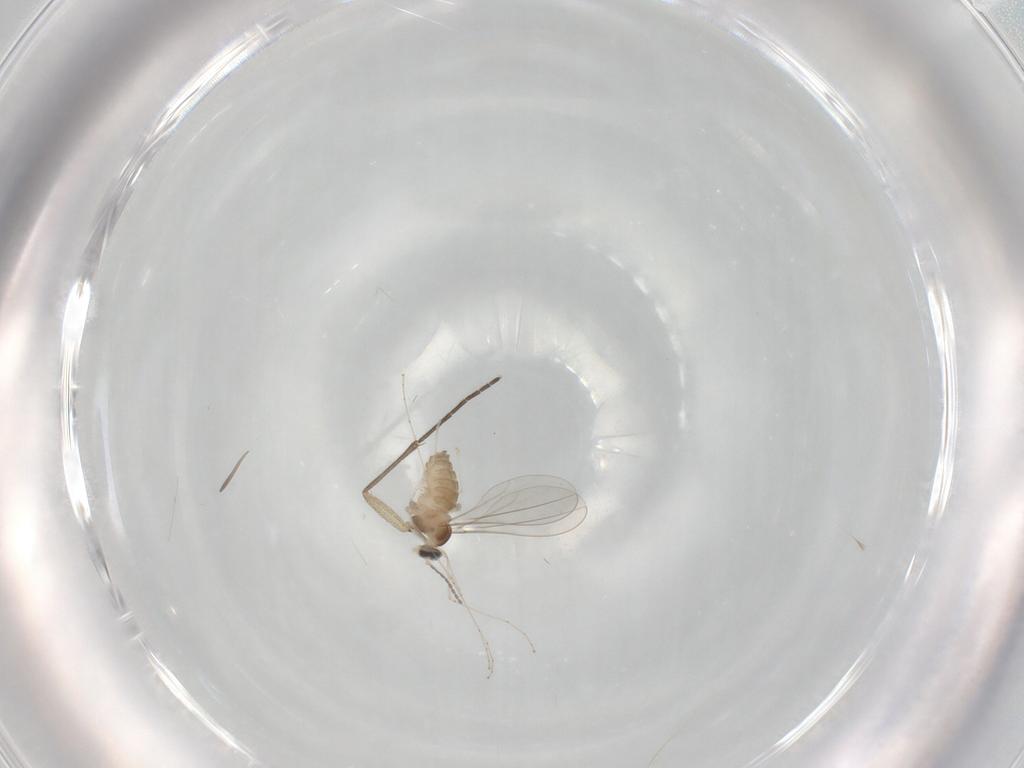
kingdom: Animalia
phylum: Arthropoda
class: Insecta
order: Diptera
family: Sciaridae
